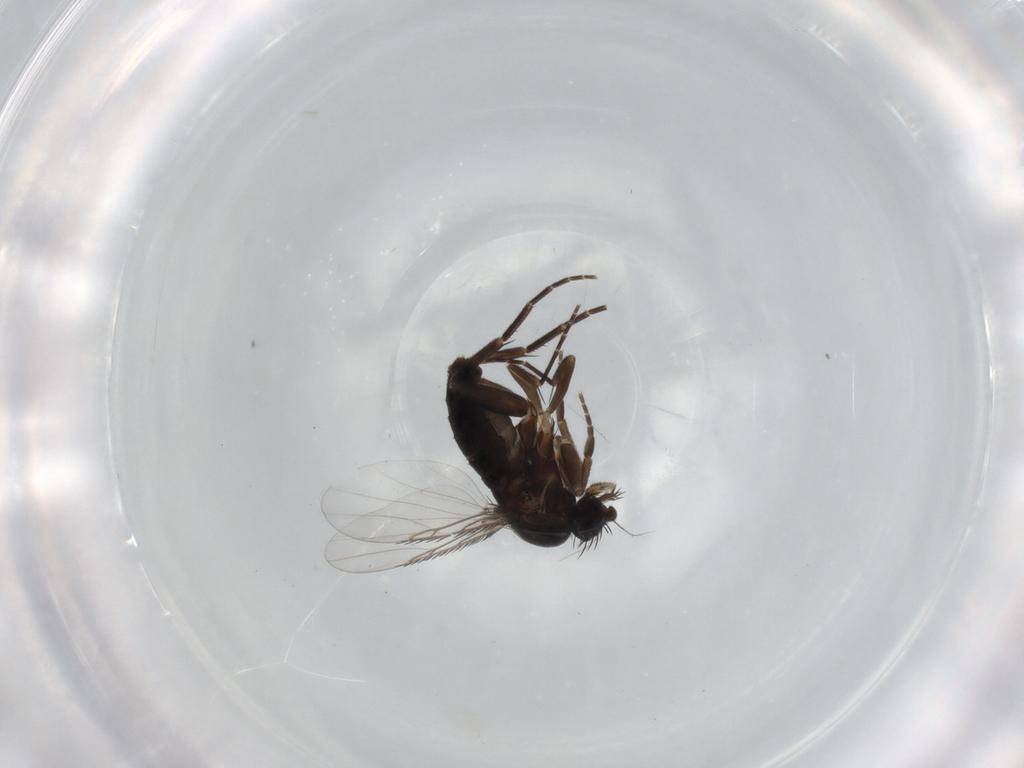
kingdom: Animalia
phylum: Arthropoda
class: Insecta
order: Diptera
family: Phoridae
